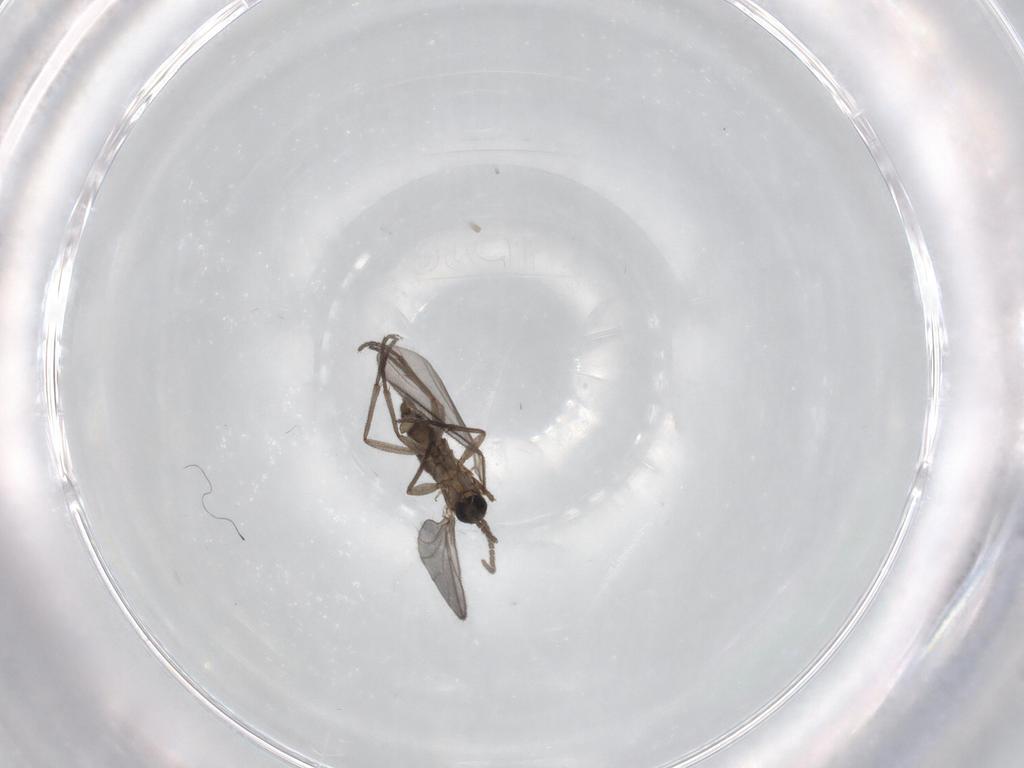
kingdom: Animalia
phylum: Arthropoda
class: Insecta
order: Diptera
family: Sciaridae
